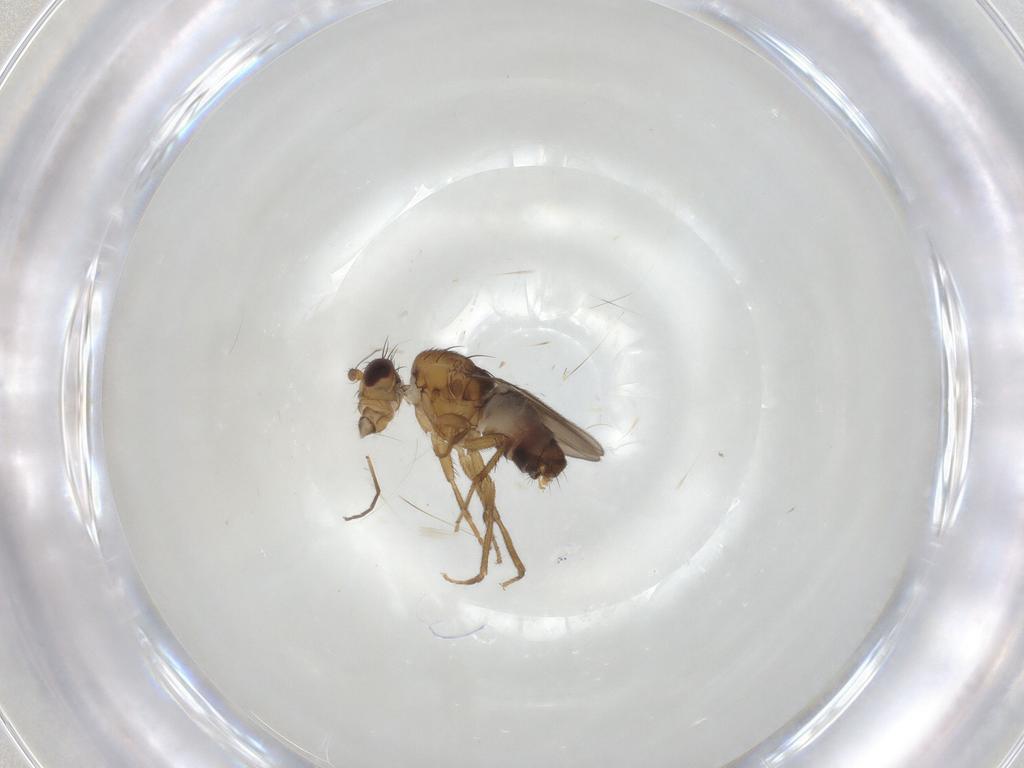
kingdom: Animalia
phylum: Arthropoda
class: Insecta
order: Diptera
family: Sphaeroceridae
